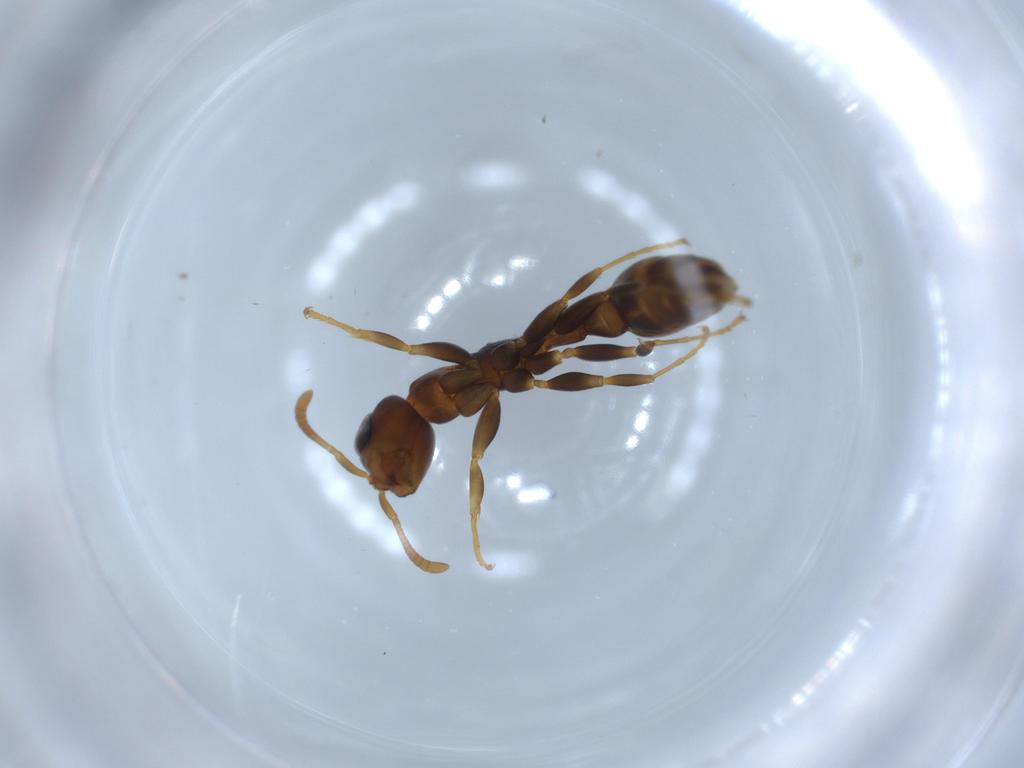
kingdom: Animalia
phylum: Arthropoda
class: Insecta
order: Hymenoptera
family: Formicidae
